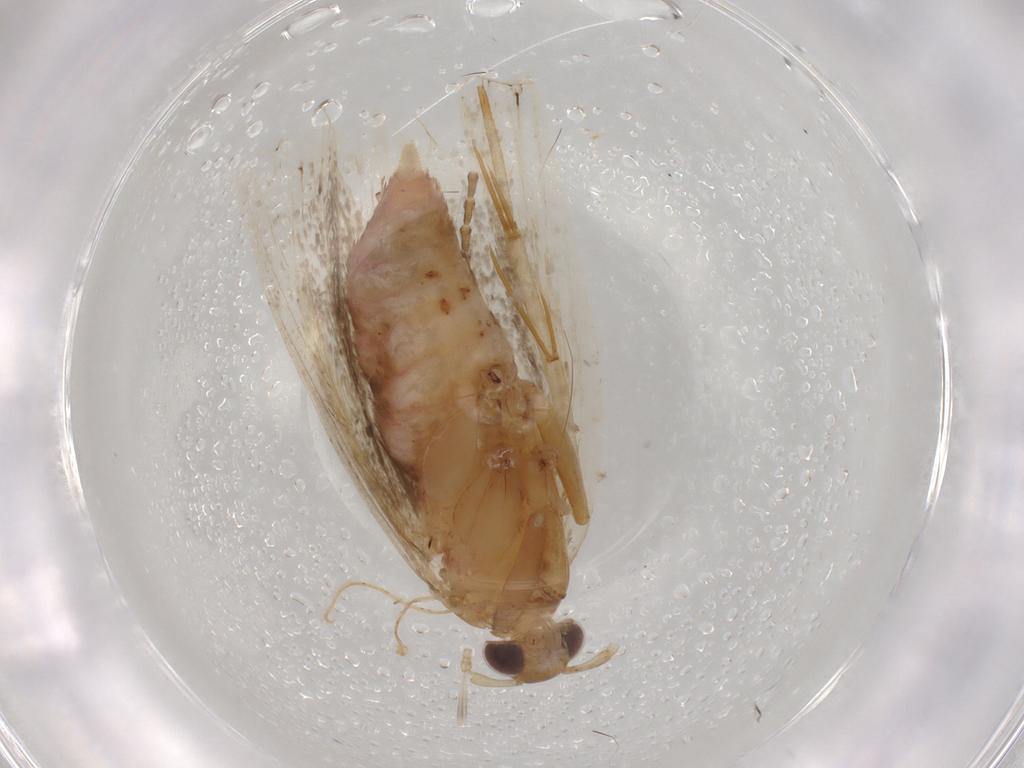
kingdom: Animalia
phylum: Arthropoda
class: Insecta
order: Lepidoptera
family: Lecithoceridae
